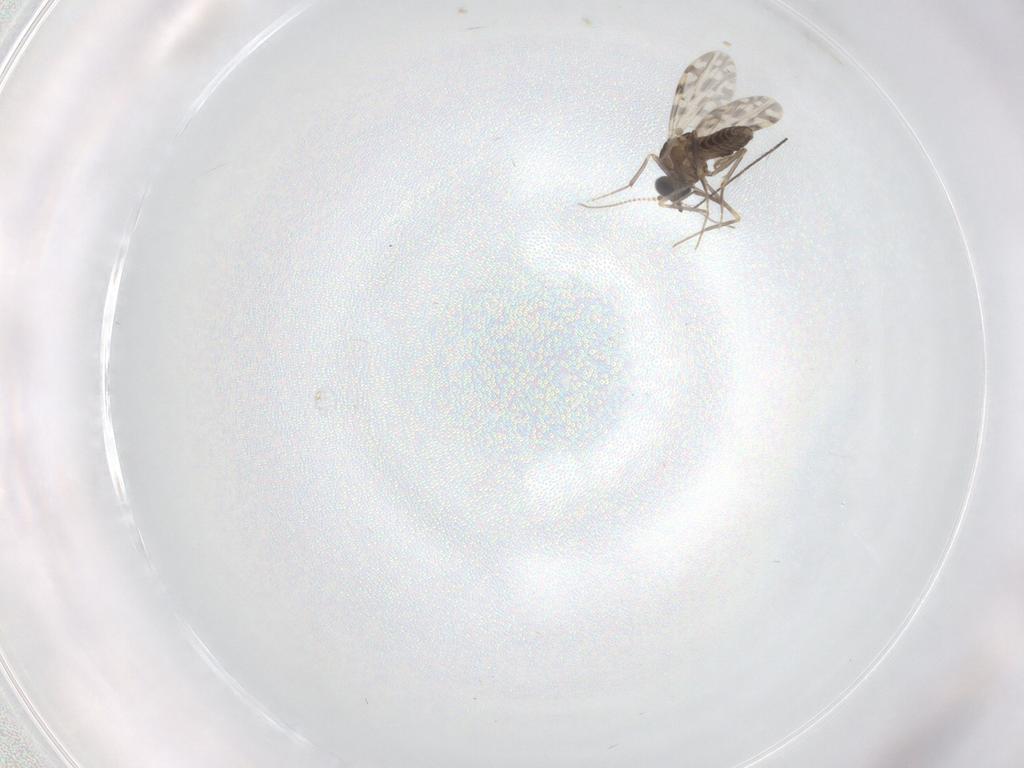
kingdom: Animalia
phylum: Arthropoda
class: Insecta
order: Diptera
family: Ceratopogonidae
